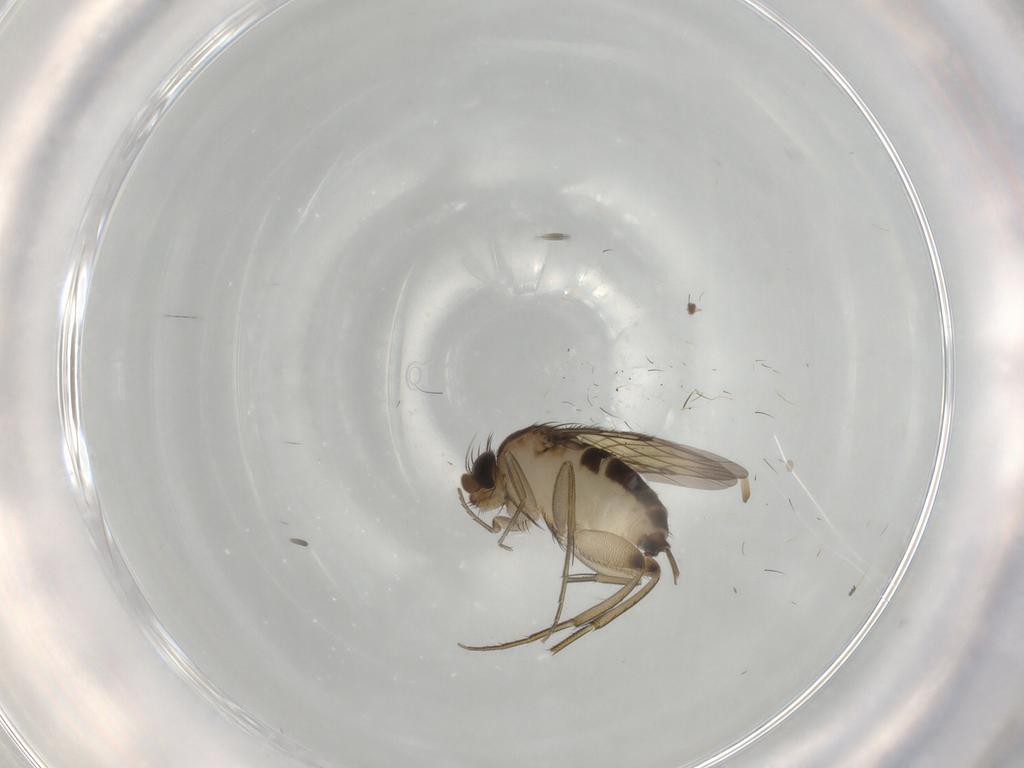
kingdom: Animalia
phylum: Arthropoda
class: Insecta
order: Diptera
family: Phoridae
